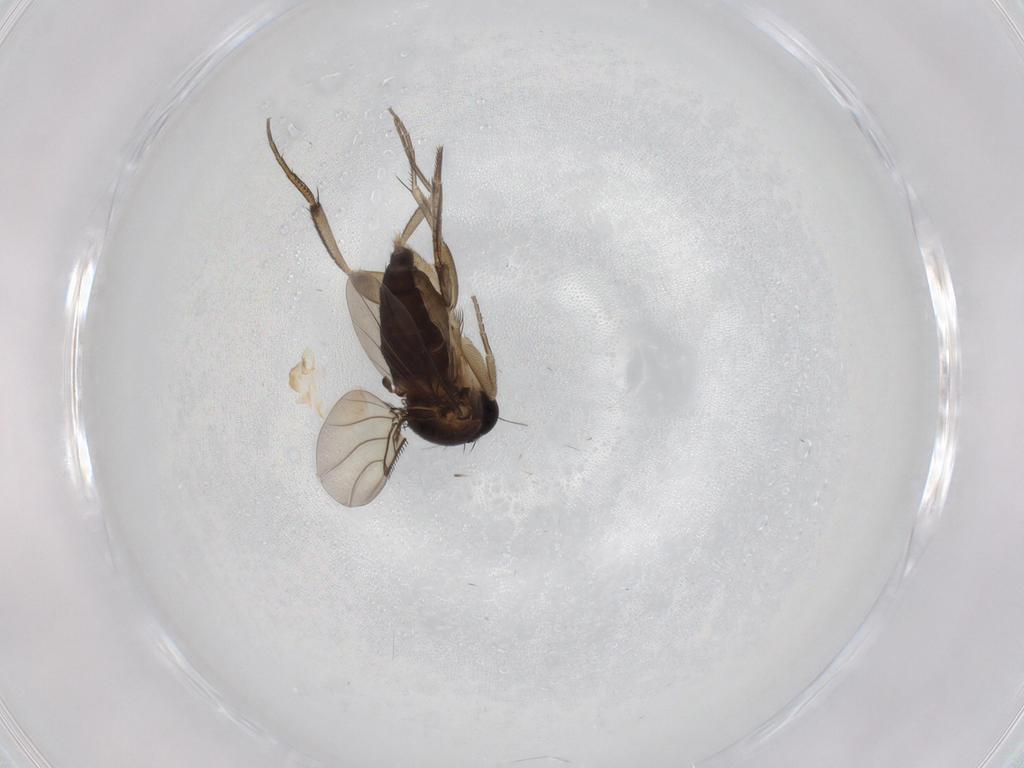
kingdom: Animalia
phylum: Arthropoda
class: Insecta
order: Diptera
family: Phoridae
